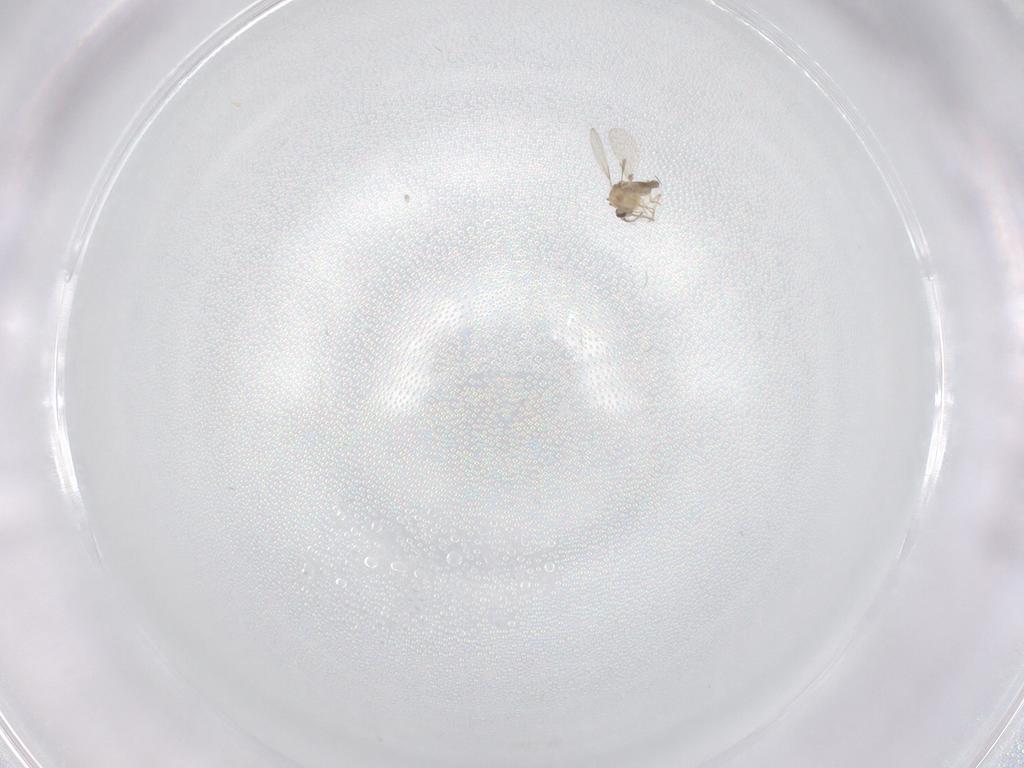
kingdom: Animalia
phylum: Arthropoda
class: Insecta
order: Diptera
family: Ceratopogonidae
